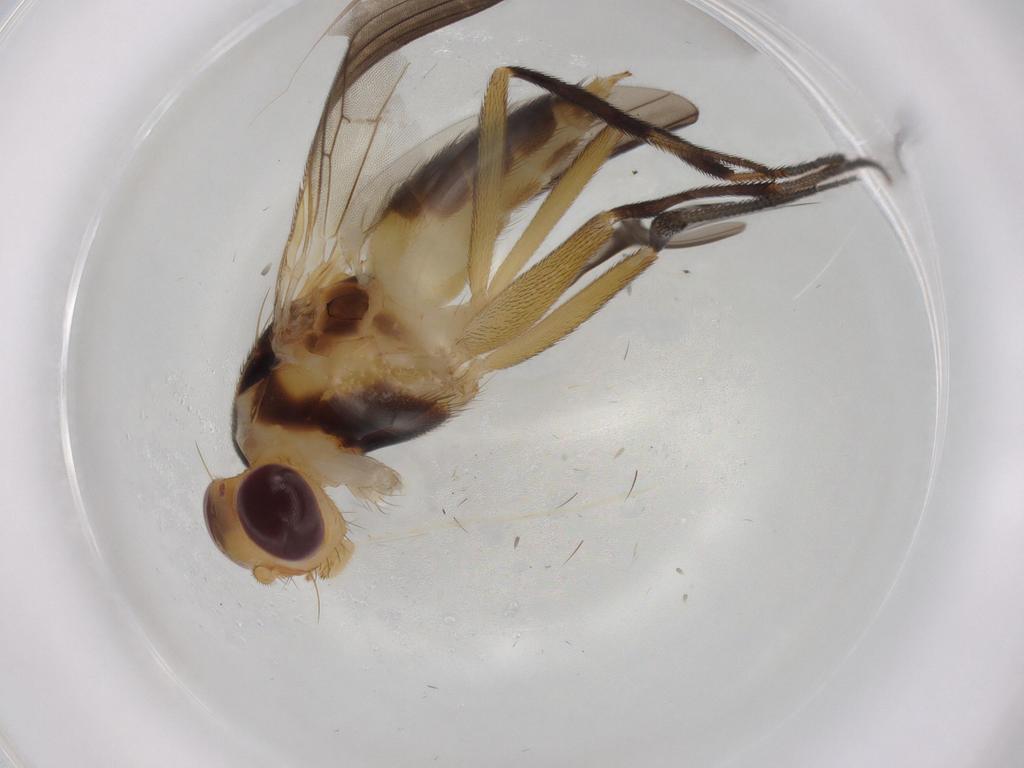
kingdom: Animalia
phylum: Arthropoda
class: Insecta
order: Diptera
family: Clusiidae
